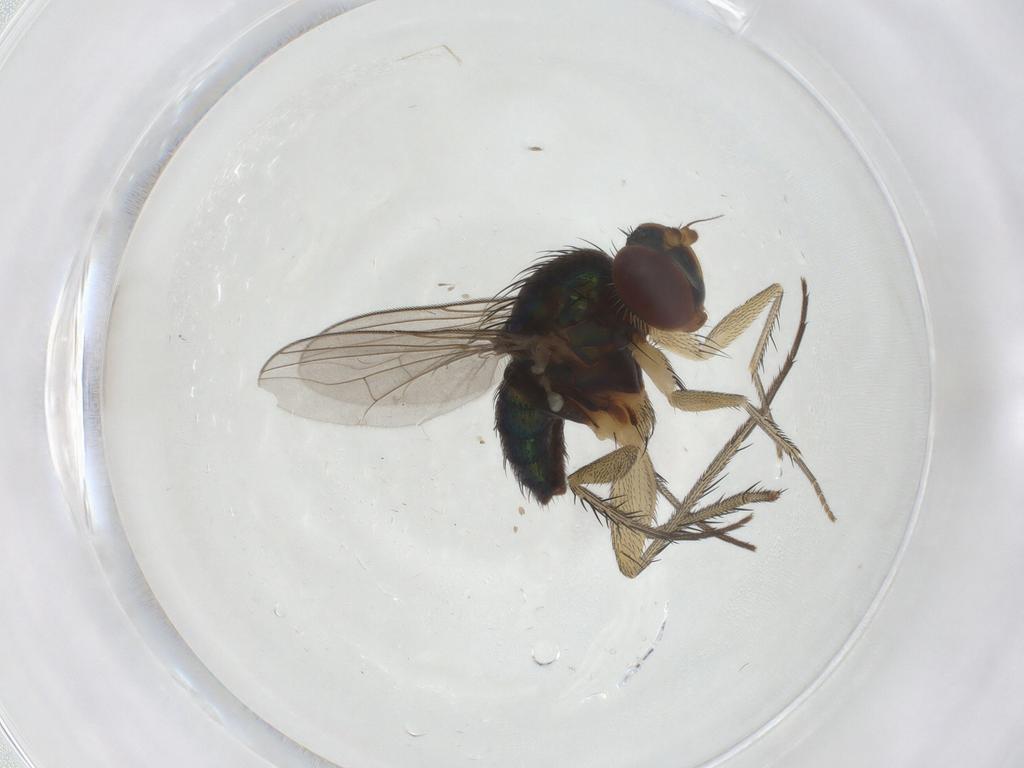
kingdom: Animalia
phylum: Arthropoda
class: Insecta
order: Diptera
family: Dolichopodidae
